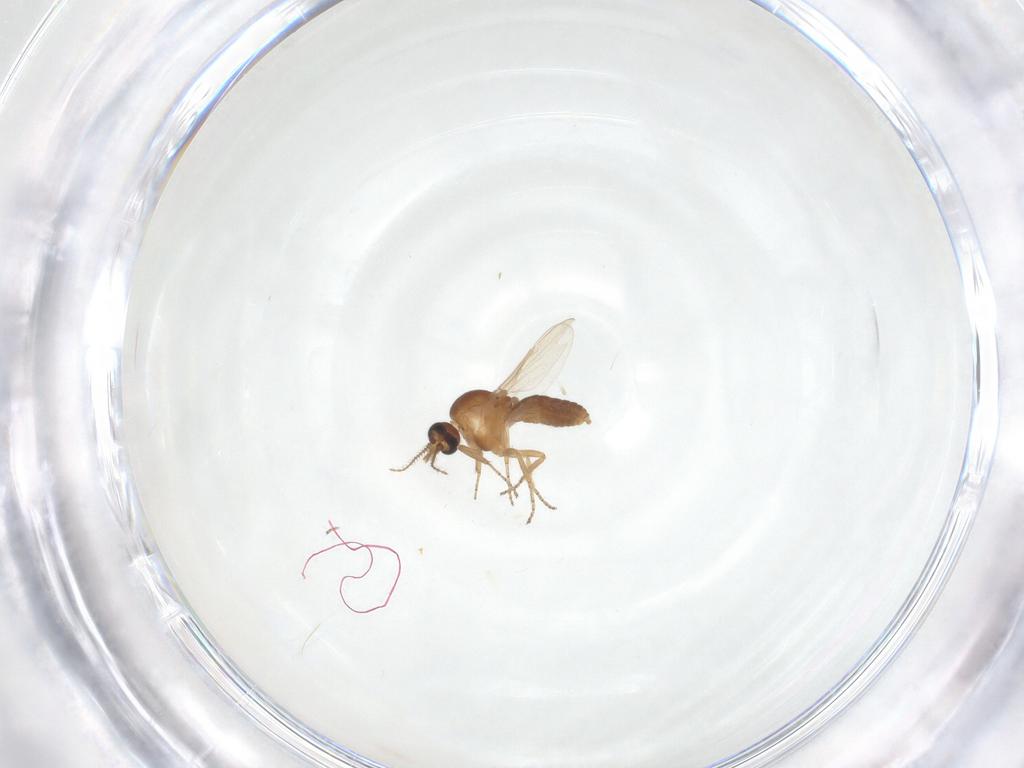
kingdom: Animalia
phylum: Arthropoda
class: Insecta
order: Diptera
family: Ceratopogonidae
